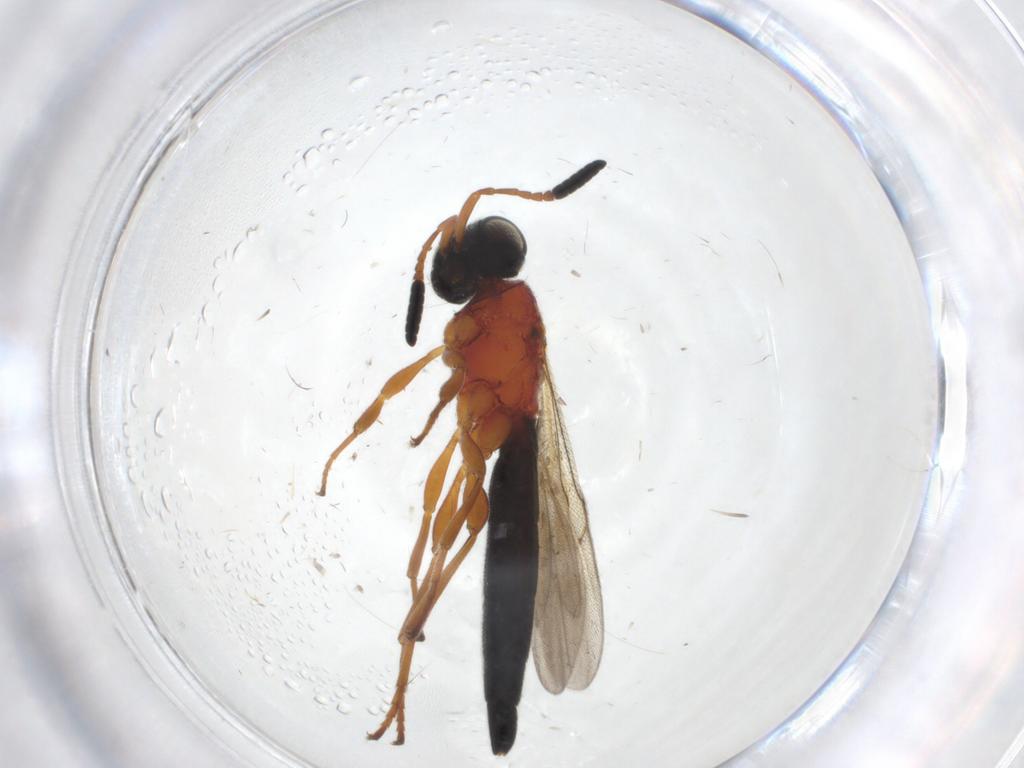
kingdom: Animalia
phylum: Arthropoda
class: Insecta
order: Hymenoptera
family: Scelionidae
